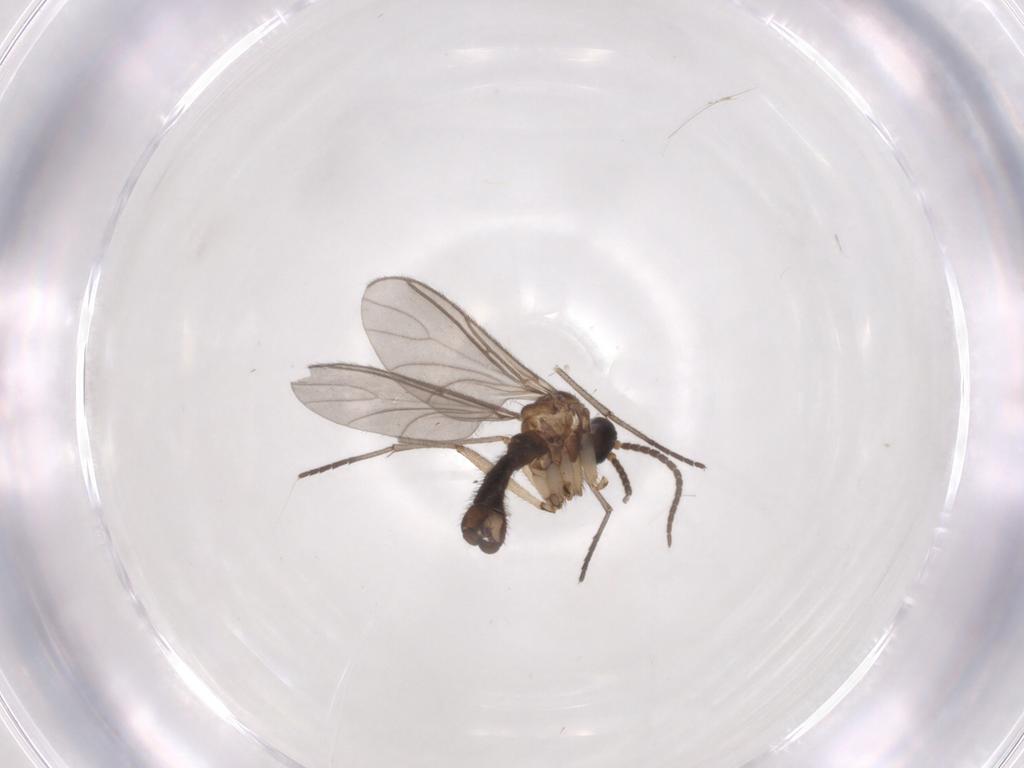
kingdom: Animalia
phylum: Arthropoda
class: Insecta
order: Diptera
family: Sciaridae
